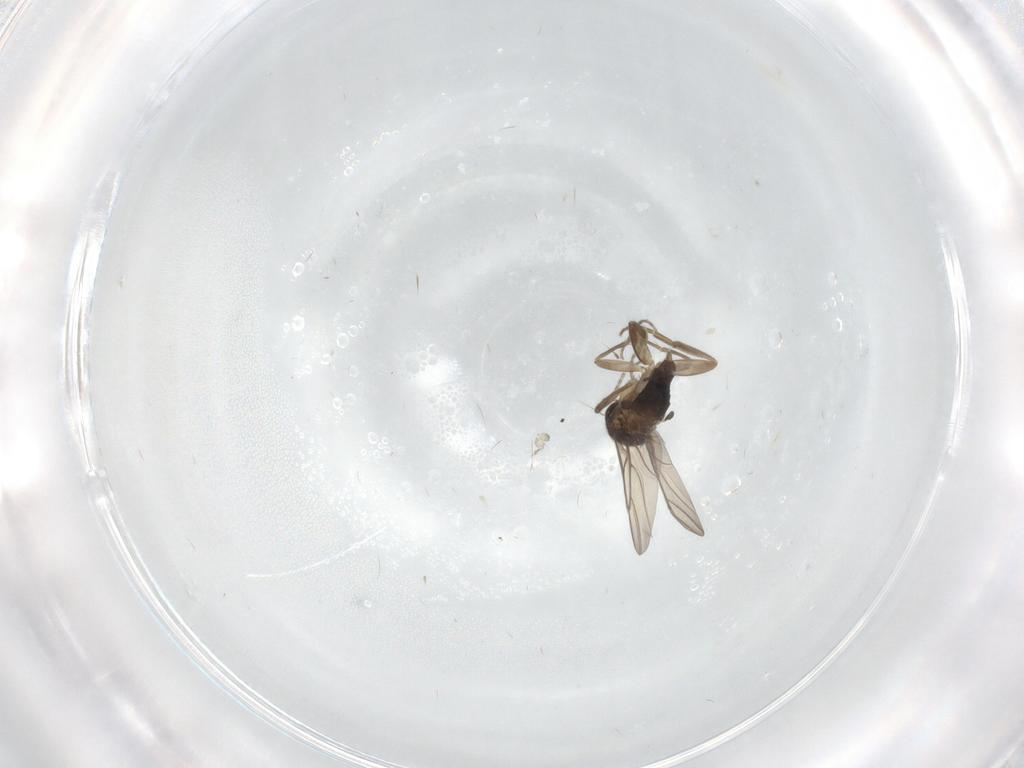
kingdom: Animalia
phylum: Arthropoda
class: Insecta
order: Diptera
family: Phoridae
